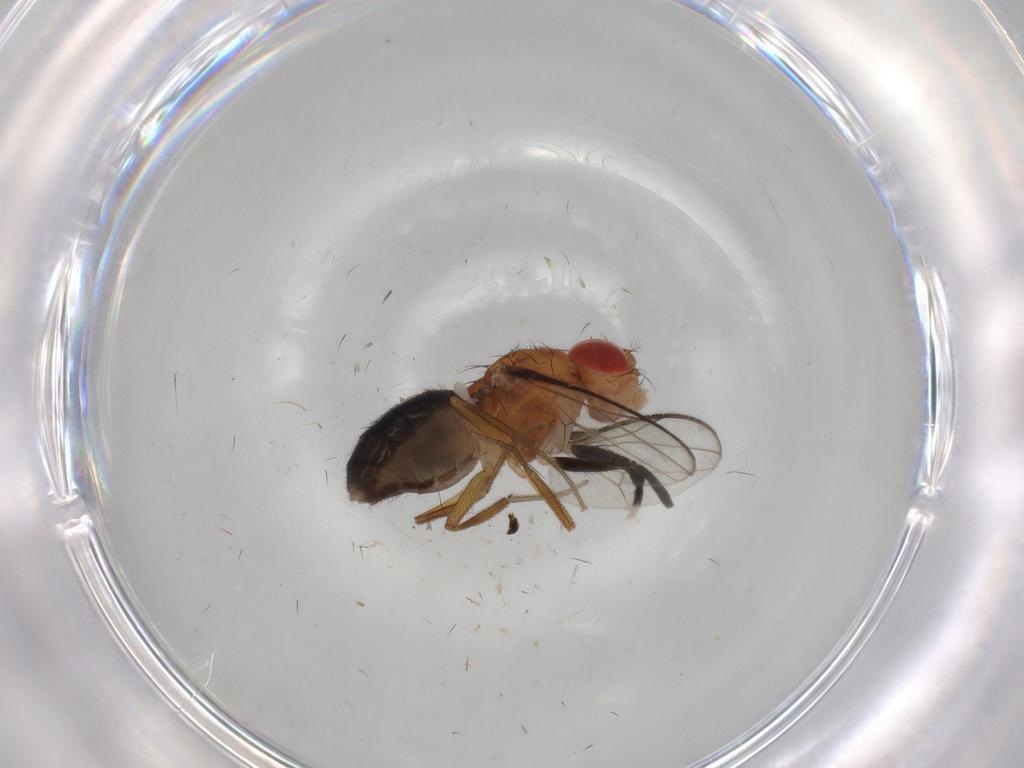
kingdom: Animalia
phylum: Arthropoda
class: Insecta
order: Diptera
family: Drosophilidae
